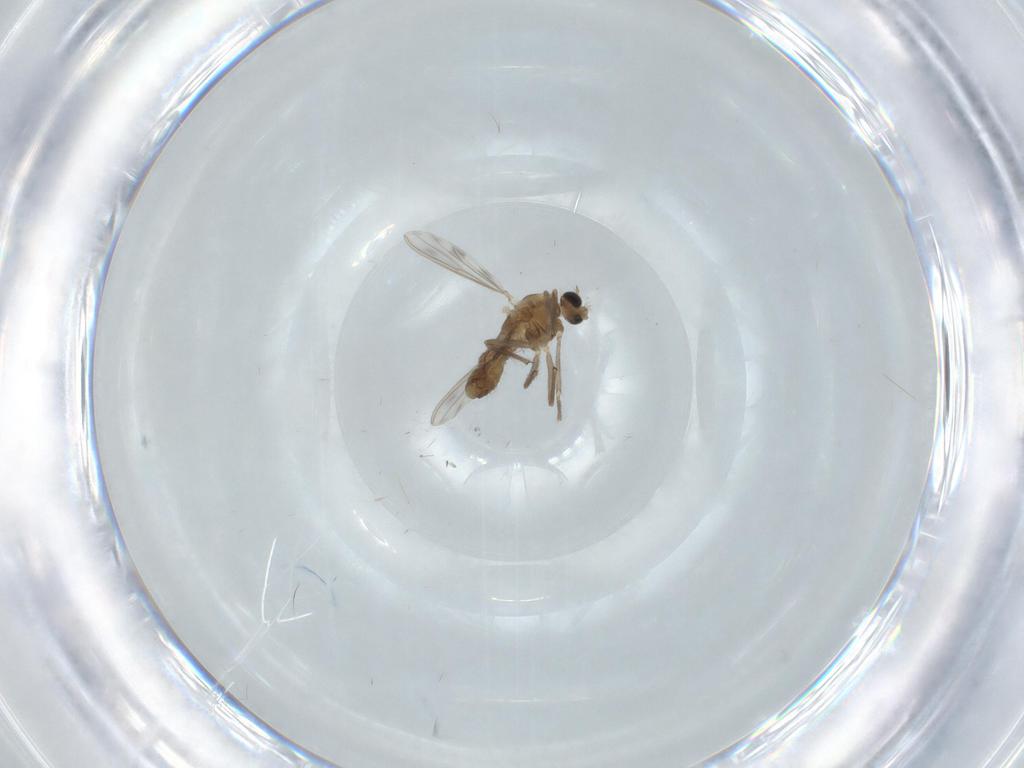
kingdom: Animalia
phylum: Arthropoda
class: Insecta
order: Diptera
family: Chironomidae
